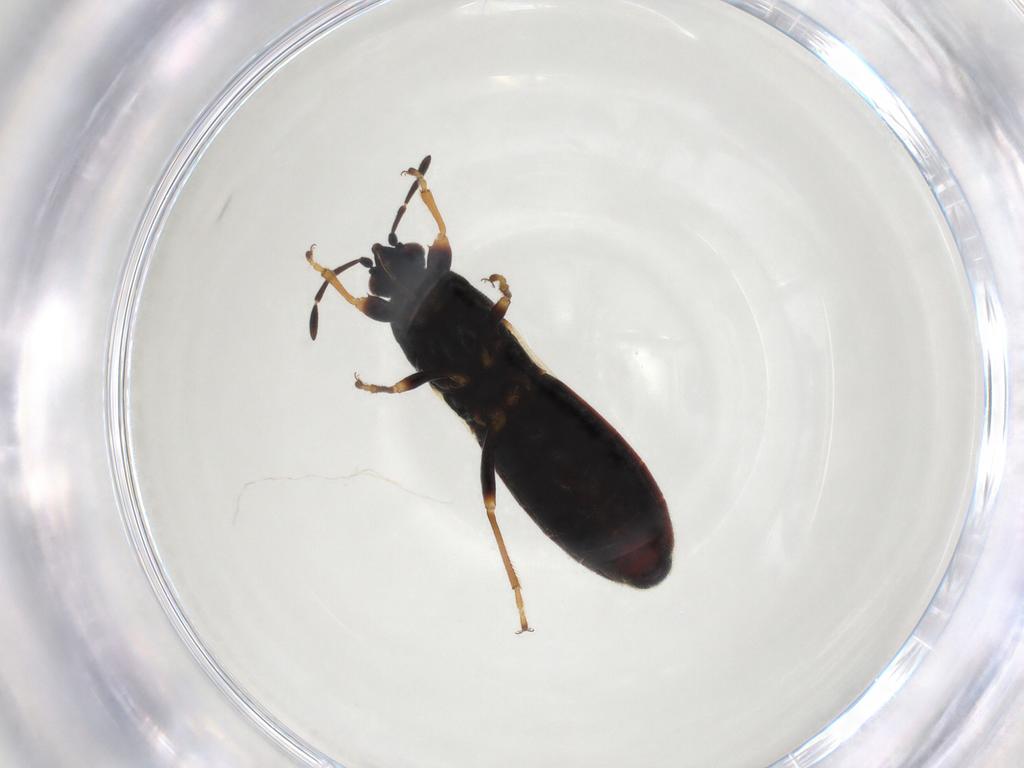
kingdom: Animalia
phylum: Arthropoda
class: Insecta
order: Hemiptera
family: Blissidae
